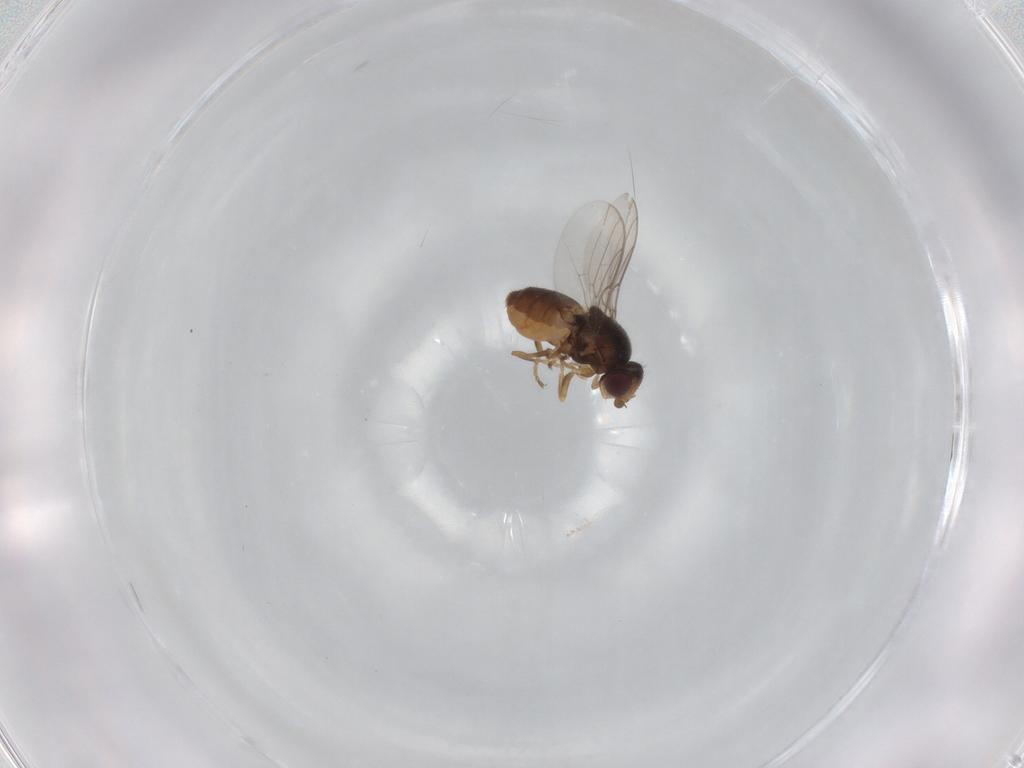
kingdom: Animalia
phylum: Arthropoda
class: Insecta
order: Diptera
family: Chloropidae
